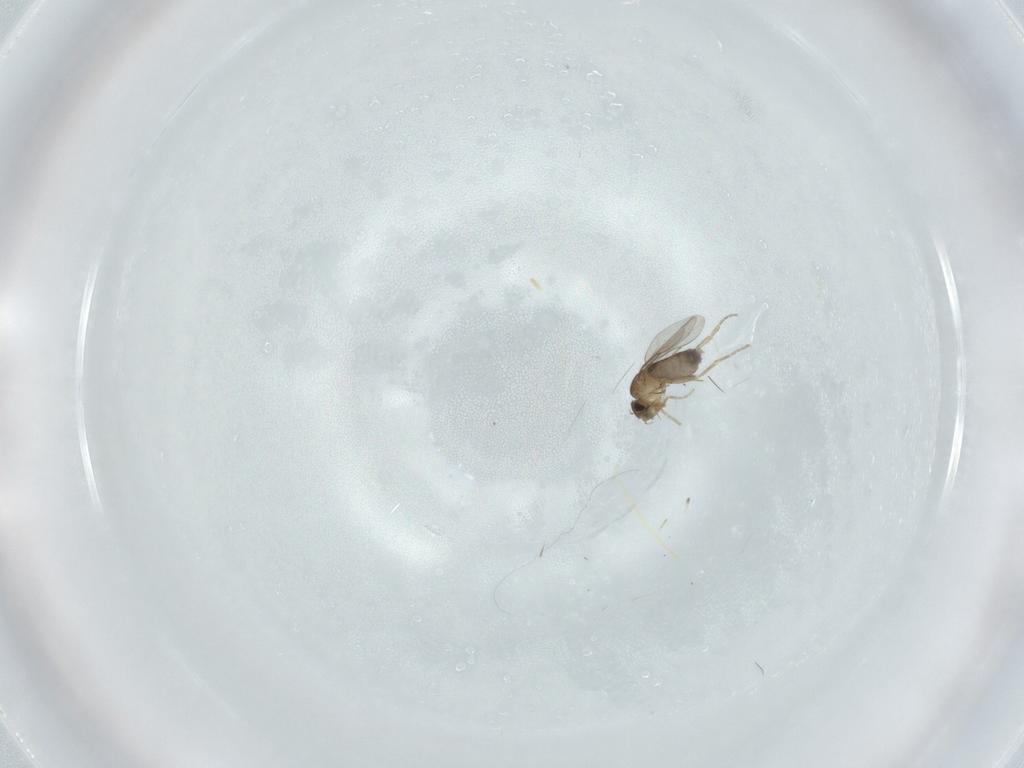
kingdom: Animalia
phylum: Arthropoda
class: Insecta
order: Diptera
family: Phoridae
